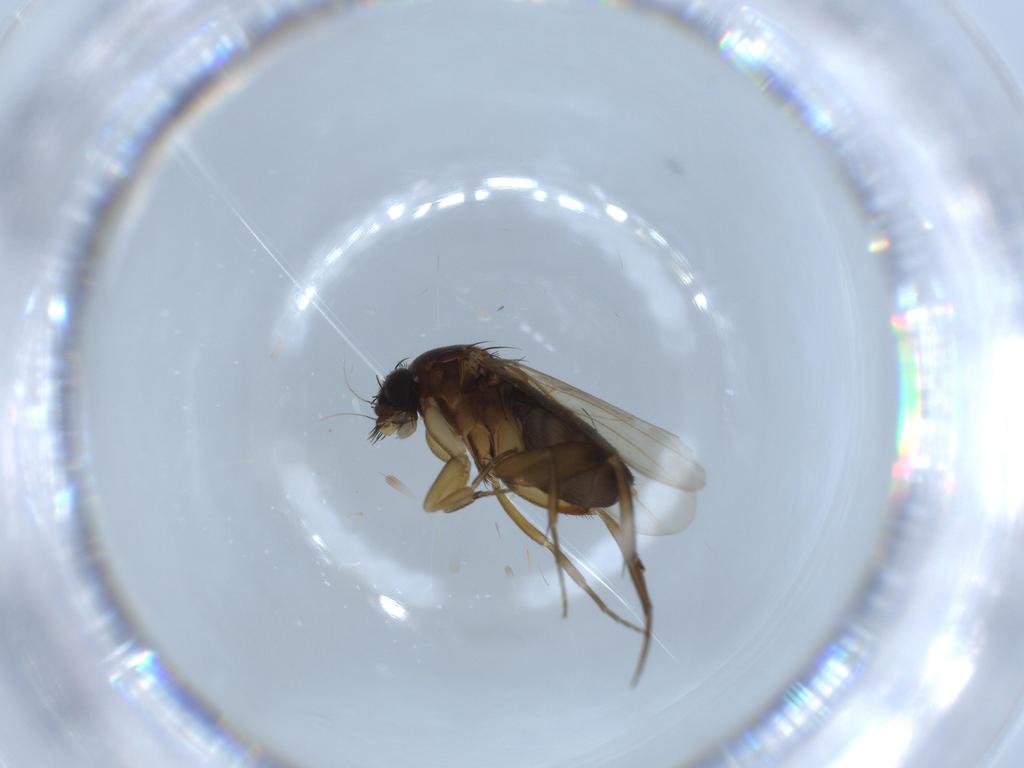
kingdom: Animalia
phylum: Arthropoda
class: Insecta
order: Diptera
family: Phoridae
